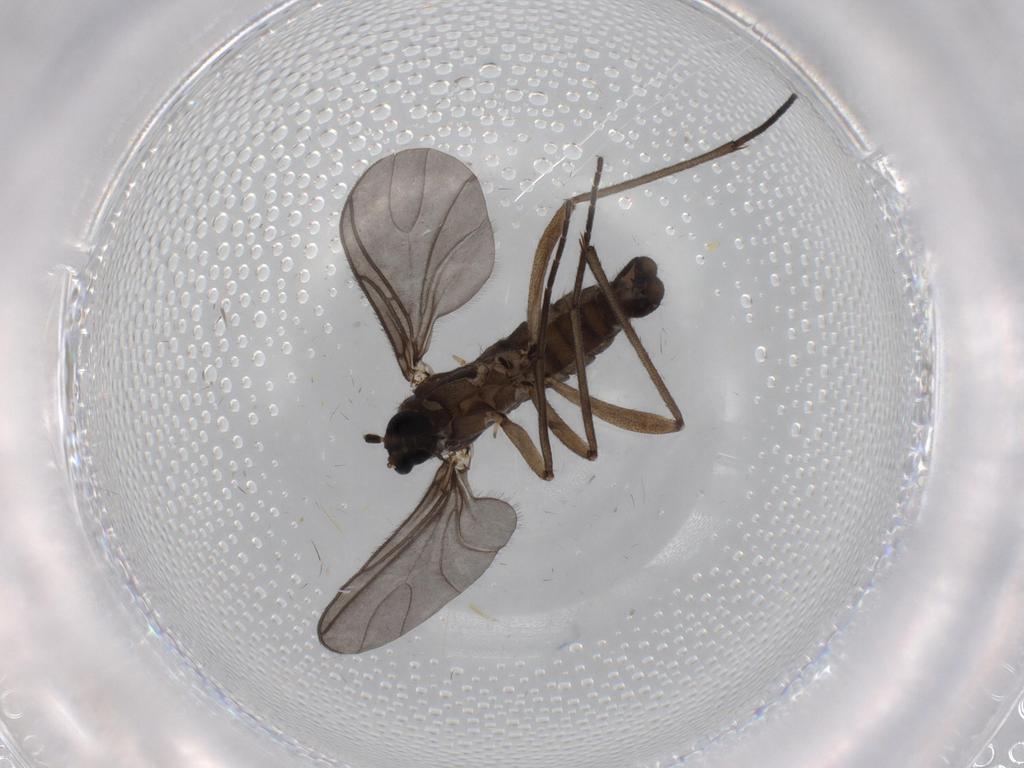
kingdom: Animalia
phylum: Arthropoda
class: Insecta
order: Diptera
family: Sciaridae
